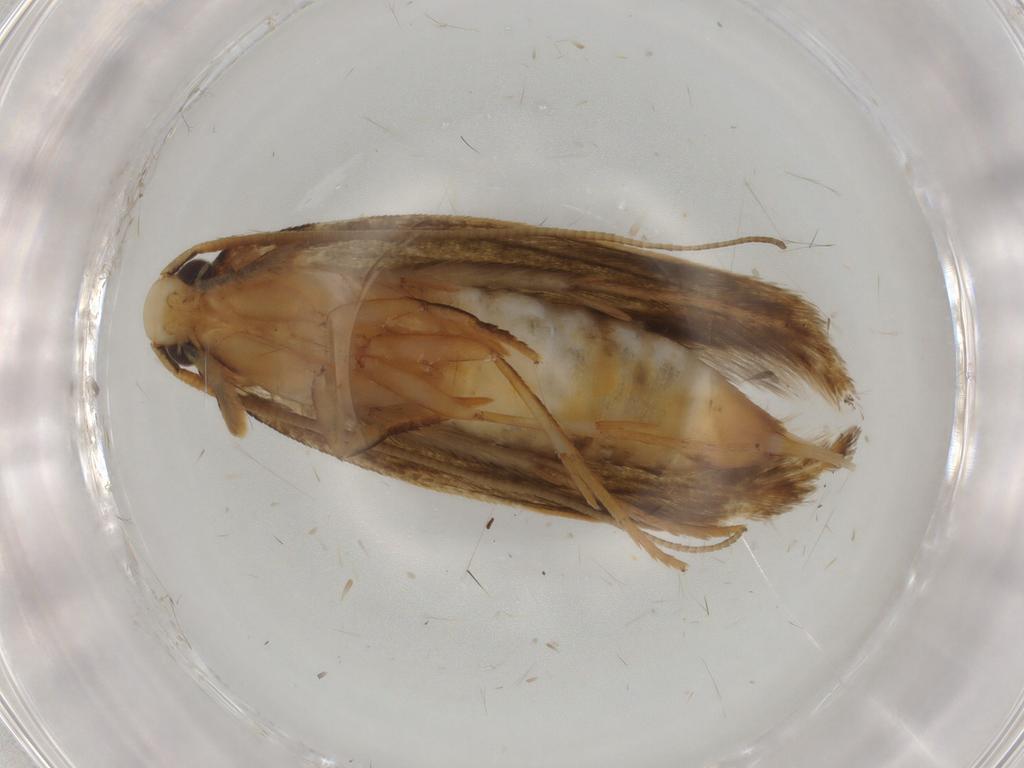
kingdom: Animalia
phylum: Arthropoda
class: Insecta
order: Lepidoptera
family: Tineidae
